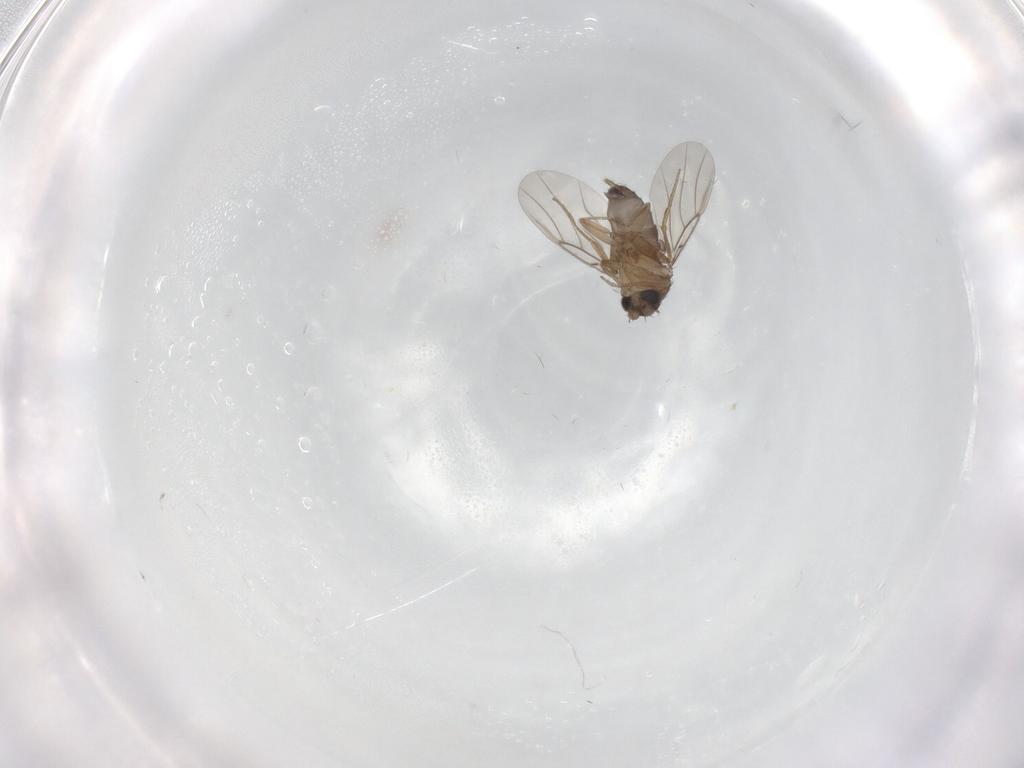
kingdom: Animalia
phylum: Arthropoda
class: Insecta
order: Diptera
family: Phoridae
